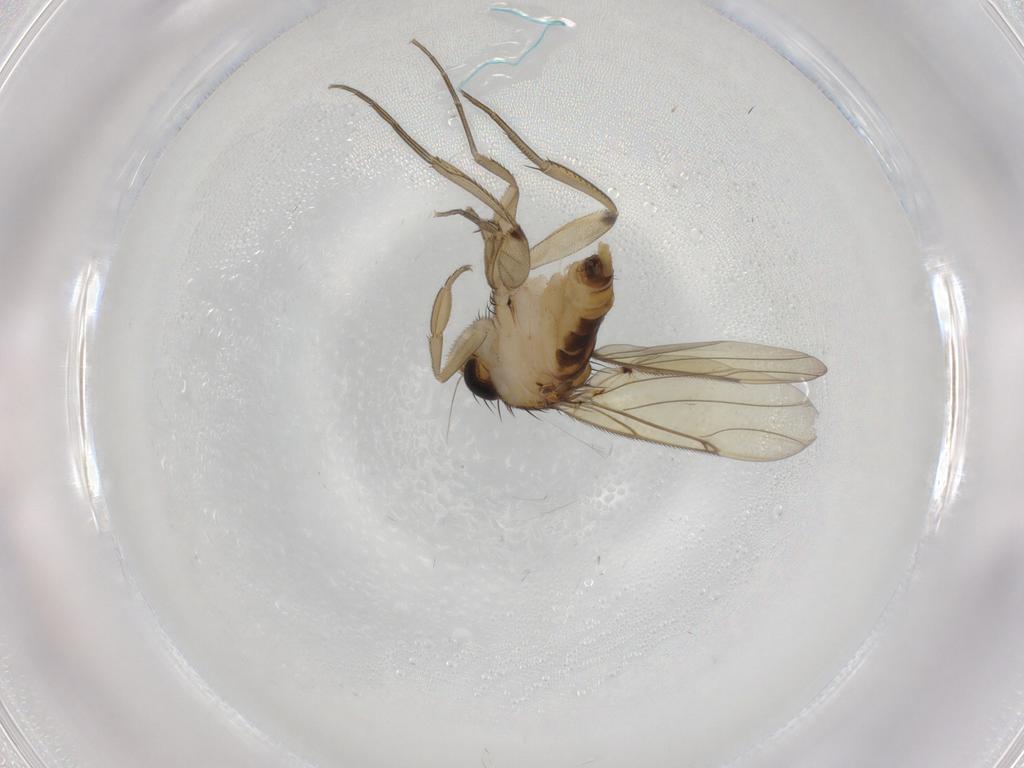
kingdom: Animalia
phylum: Arthropoda
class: Insecta
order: Diptera
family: Phoridae
